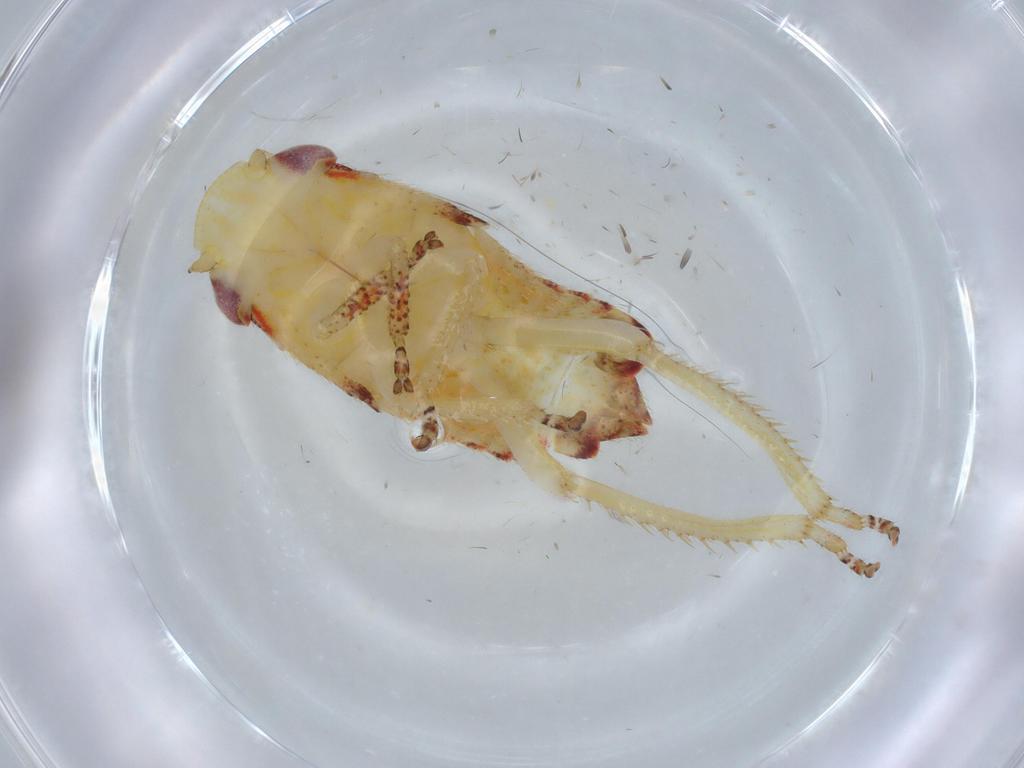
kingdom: Animalia
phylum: Arthropoda
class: Insecta
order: Hemiptera
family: Cicadellidae
